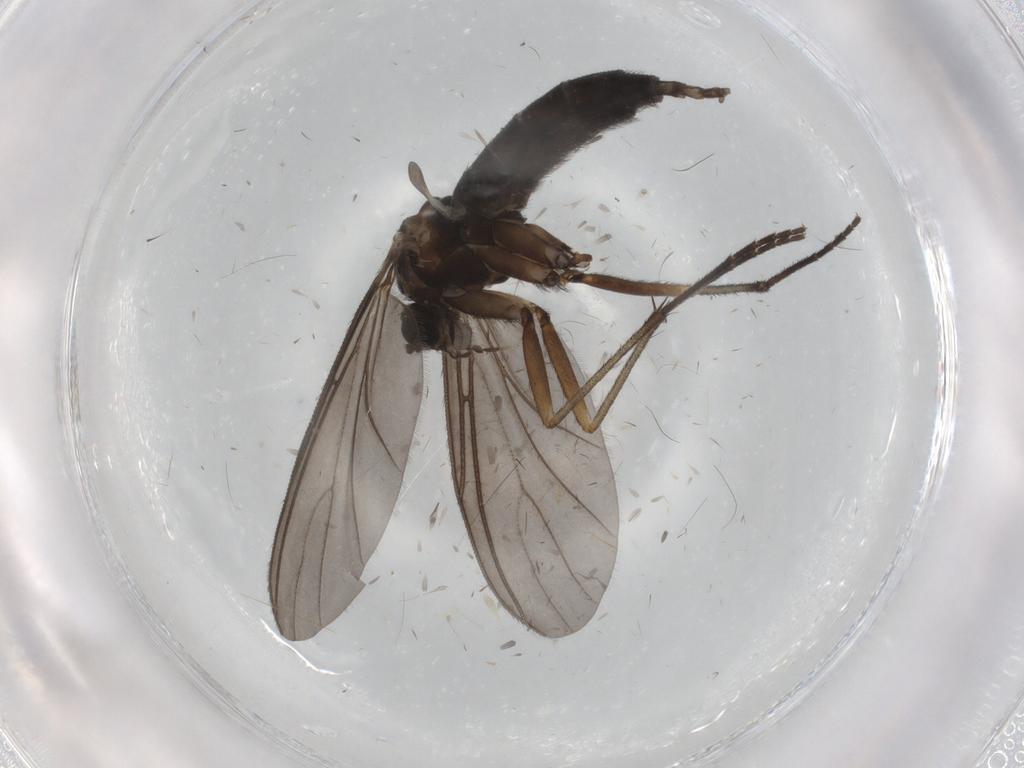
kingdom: Animalia
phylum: Arthropoda
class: Insecta
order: Diptera
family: Sciaridae
